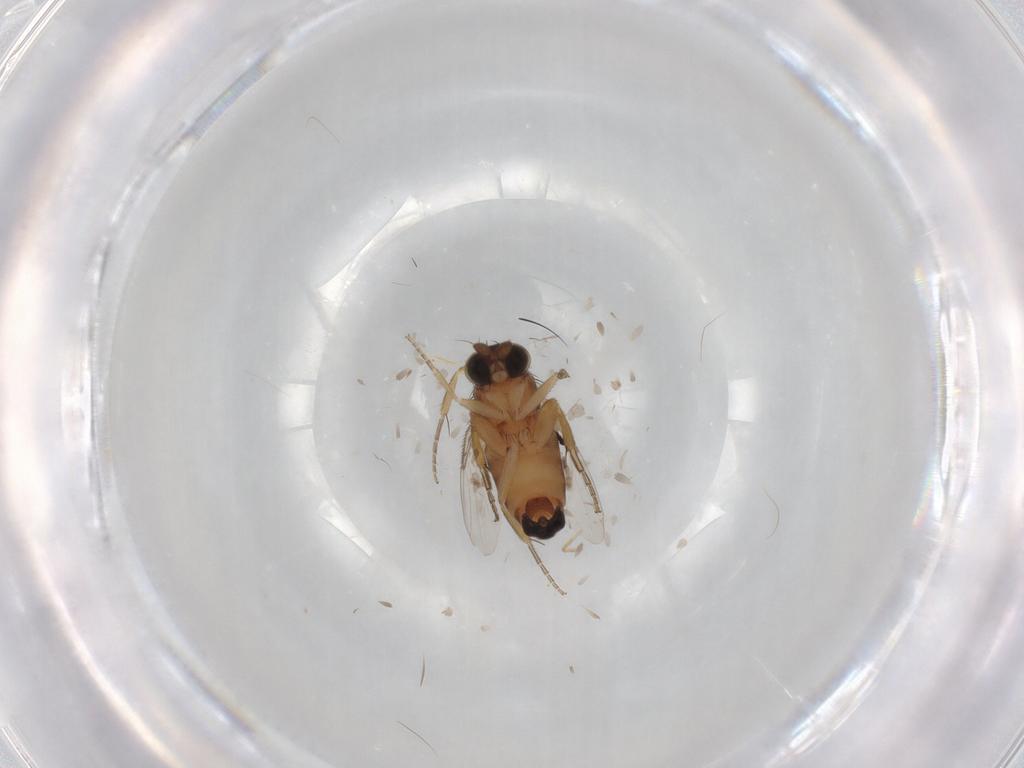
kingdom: Animalia
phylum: Arthropoda
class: Insecta
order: Diptera
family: Phoridae
